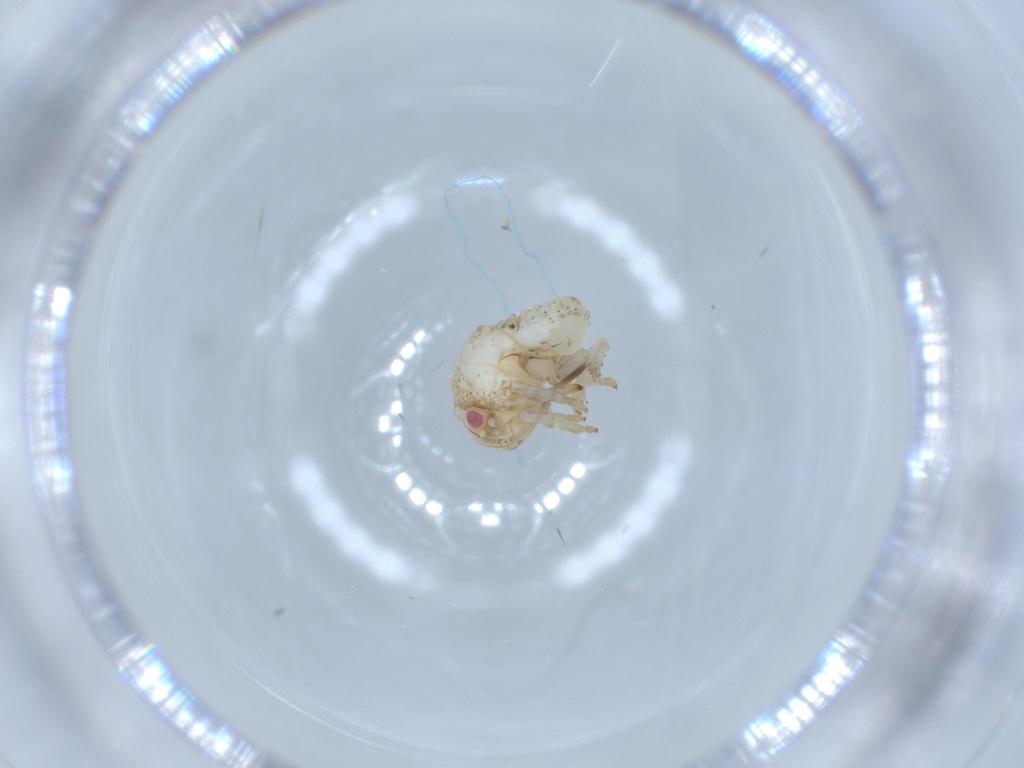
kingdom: Animalia
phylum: Arthropoda
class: Insecta
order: Hemiptera
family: Acanaloniidae
